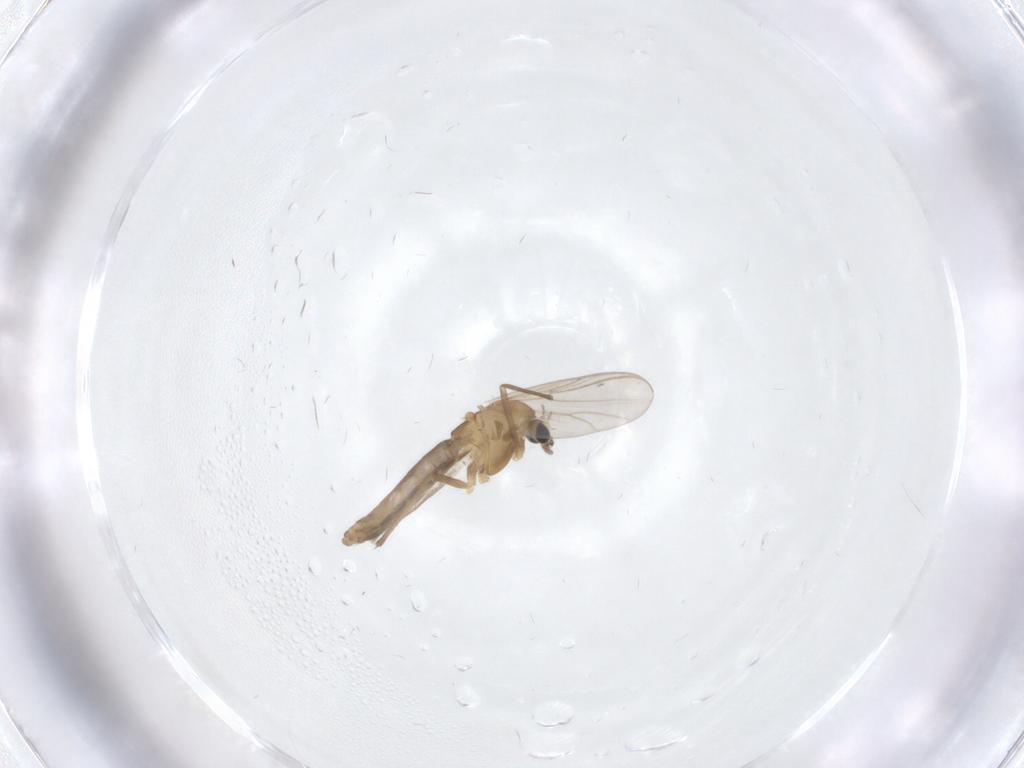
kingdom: Animalia
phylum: Arthropoda
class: Insecta
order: Diptera
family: Chironomidae
